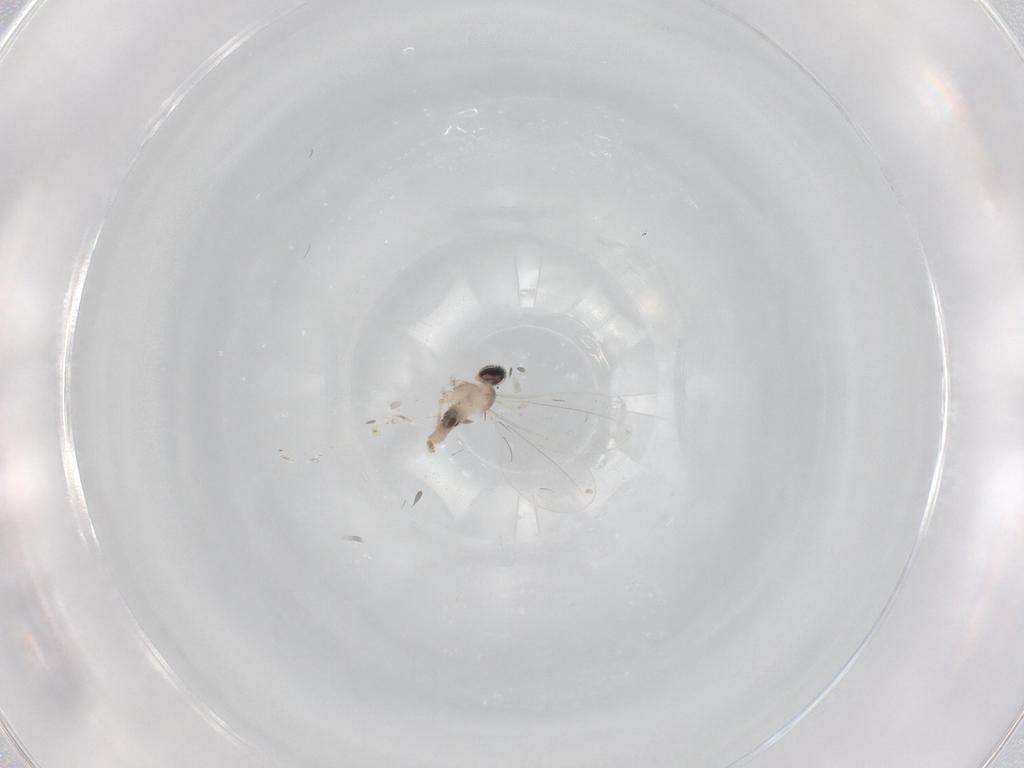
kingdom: Animalia
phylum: Arthropoda
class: Insecta
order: Diptera
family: Cecidomyiidae
